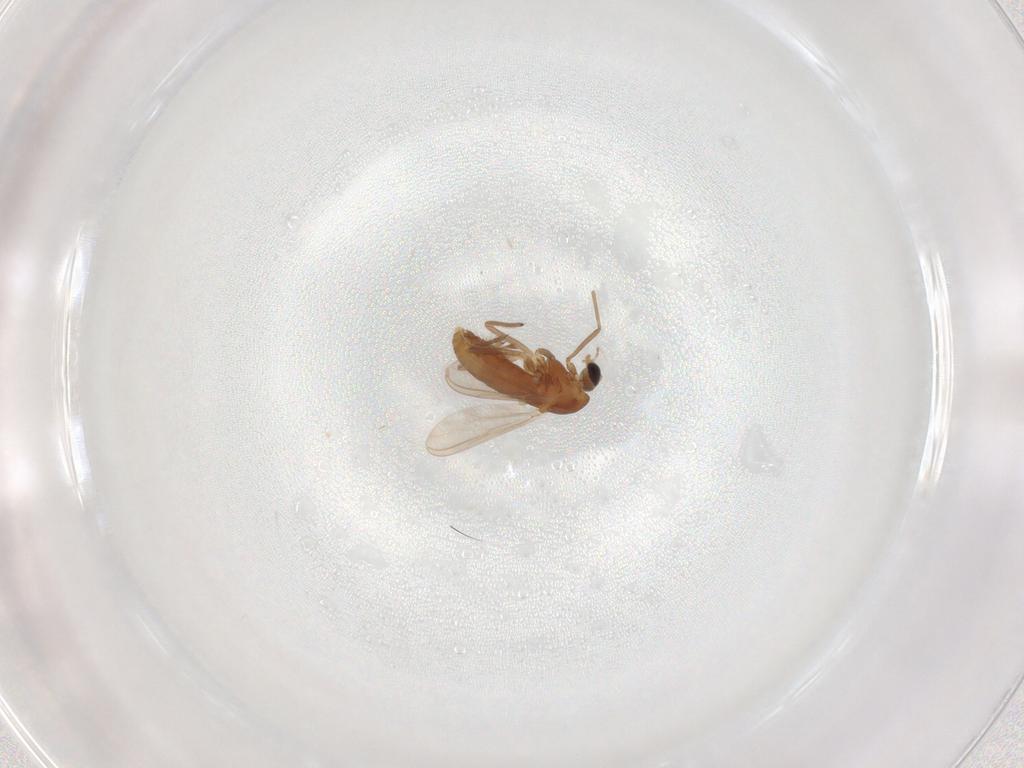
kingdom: Animalia
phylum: Arthropoda
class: Insecta
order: Diptera
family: Chironomidae
